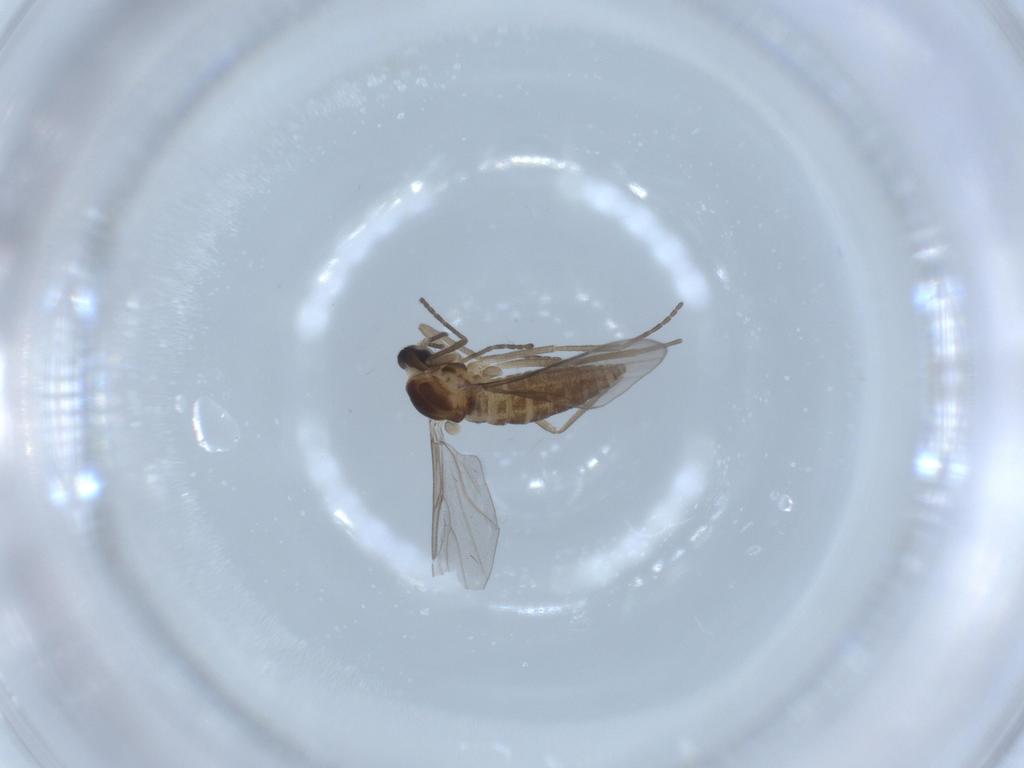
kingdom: Animalia
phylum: Arthropoda
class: Insecta
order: Diptera
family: Cecidomyiidae
